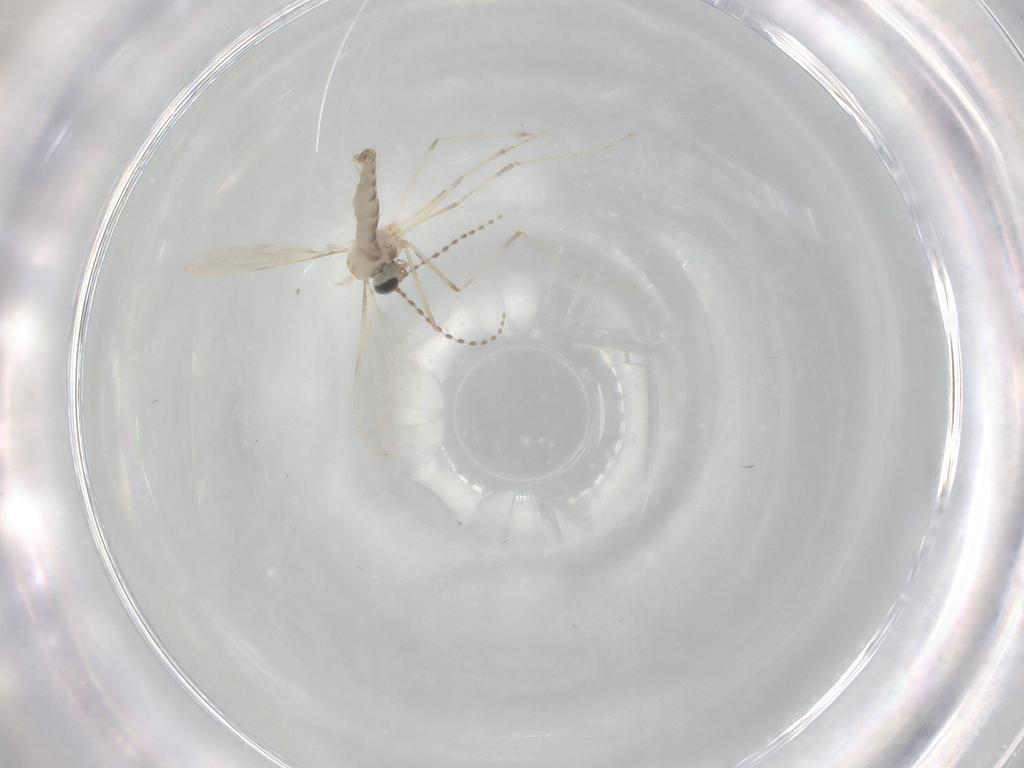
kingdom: Animalia
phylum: Arthropoda
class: Insecta
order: Diptera
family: Cecidomyiidae
